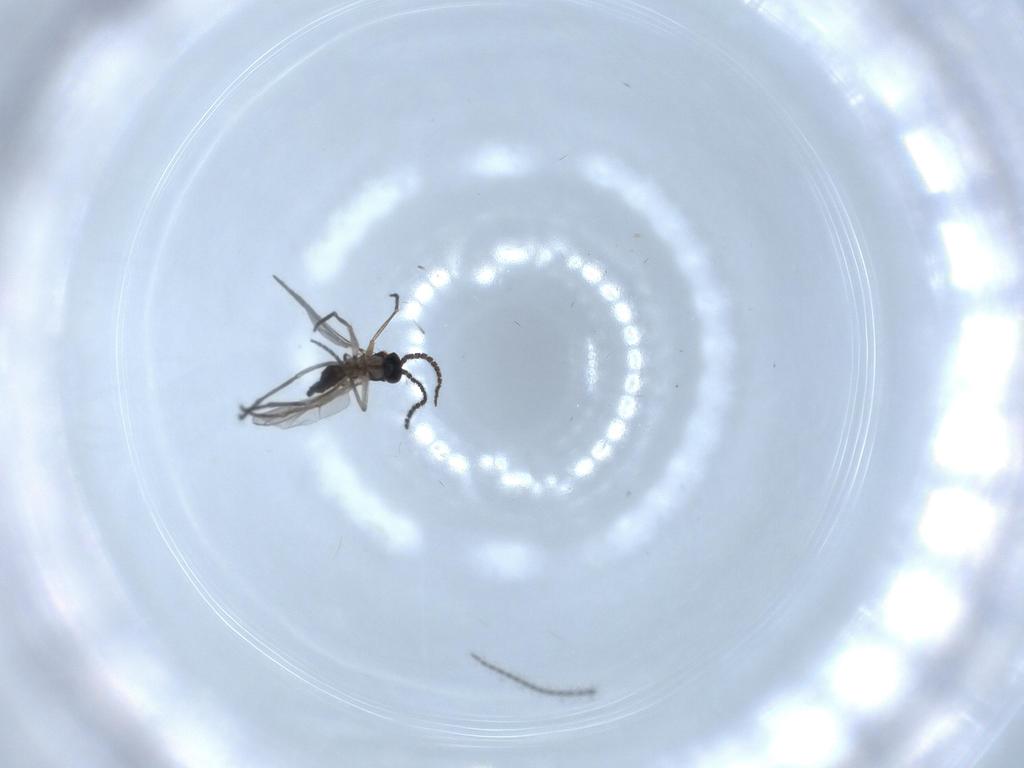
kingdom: Animalia
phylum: Arthropoda
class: Insecta
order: Diptera
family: Sciaridae
